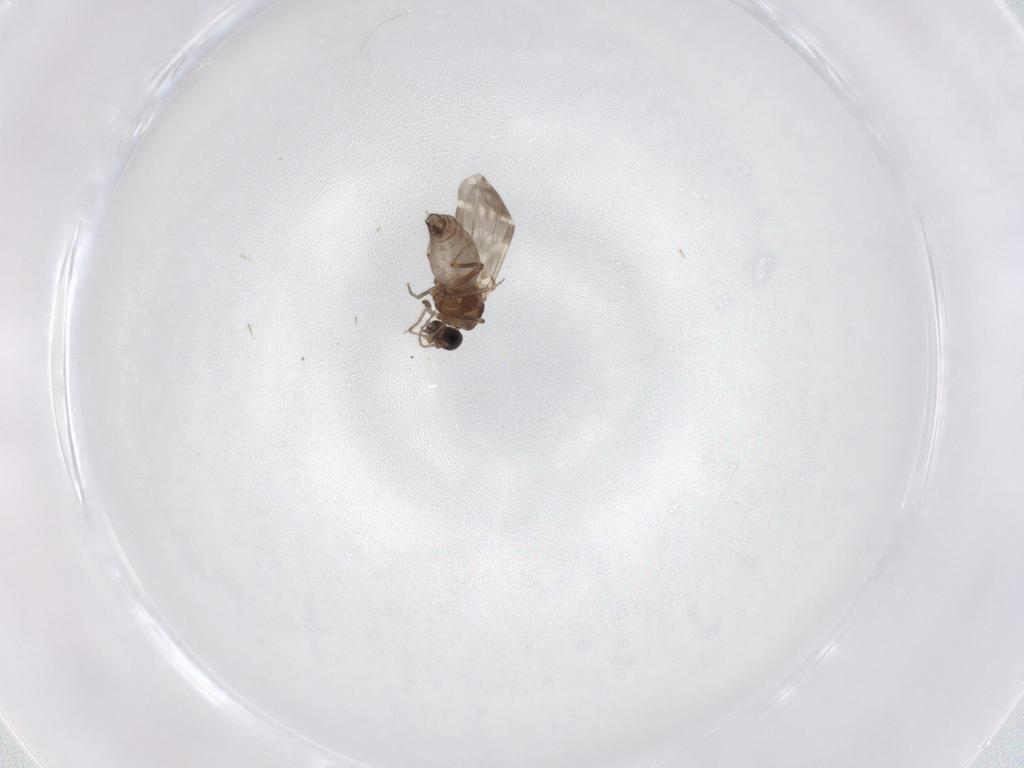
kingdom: Animalia
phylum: Arthropoda
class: Insecta
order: Diptera
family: Ceratopogonidae
